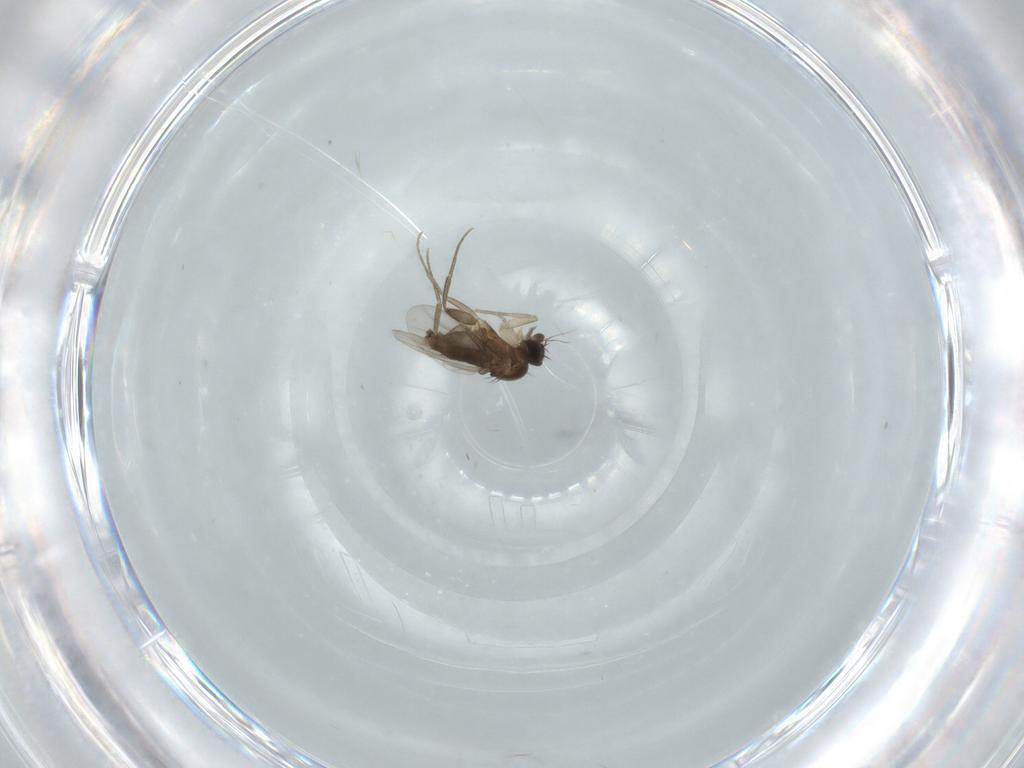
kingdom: Animalia
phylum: Arthropoda
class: Insecta
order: Diptera
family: Phoridae
